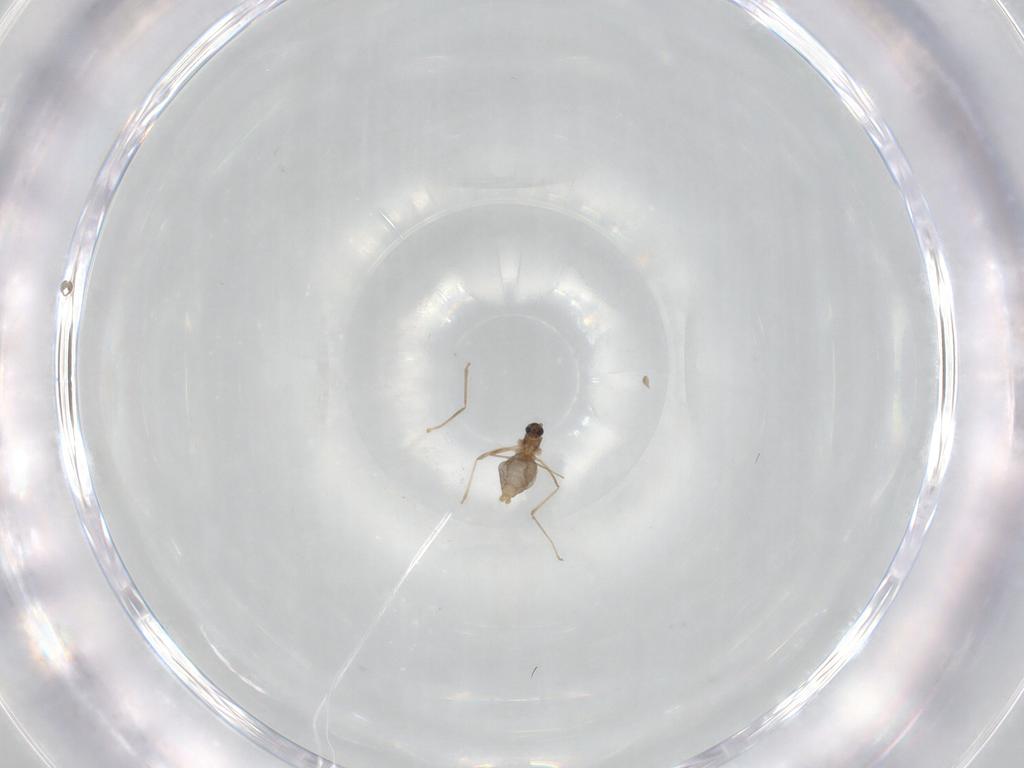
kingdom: Animalia
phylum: Arthropoda
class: Insecta
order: Diptera
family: Cecidomyiidae
